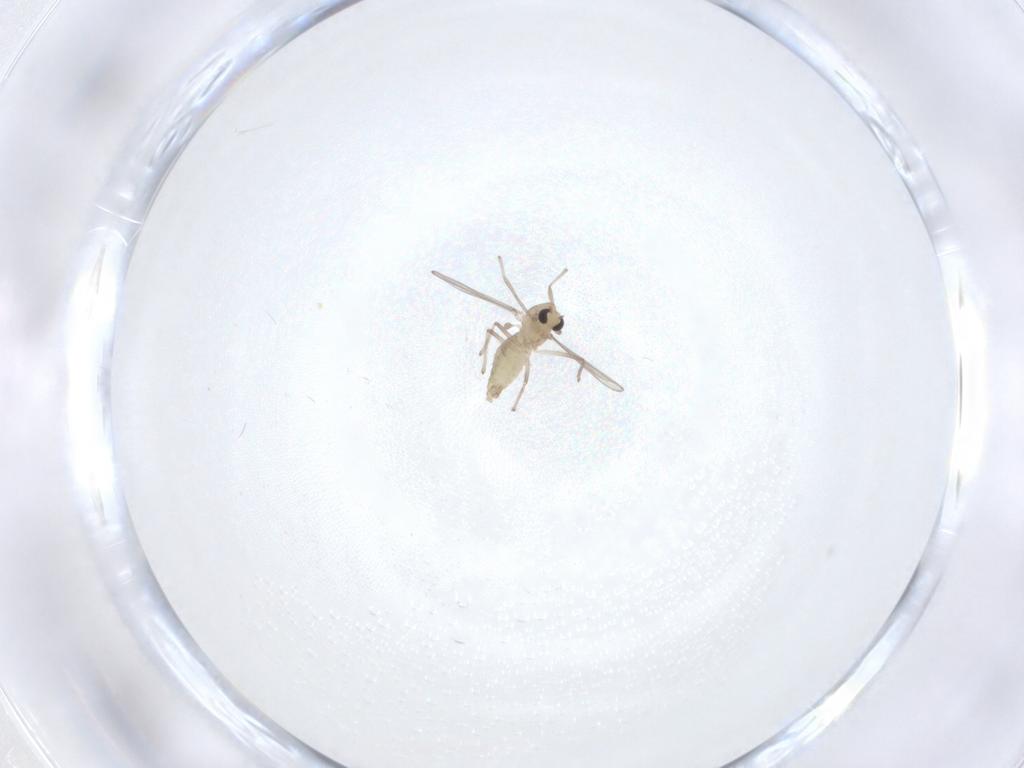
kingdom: Animalia
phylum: Arthropoda
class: Insecta
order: Diptera
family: Chironomidae
